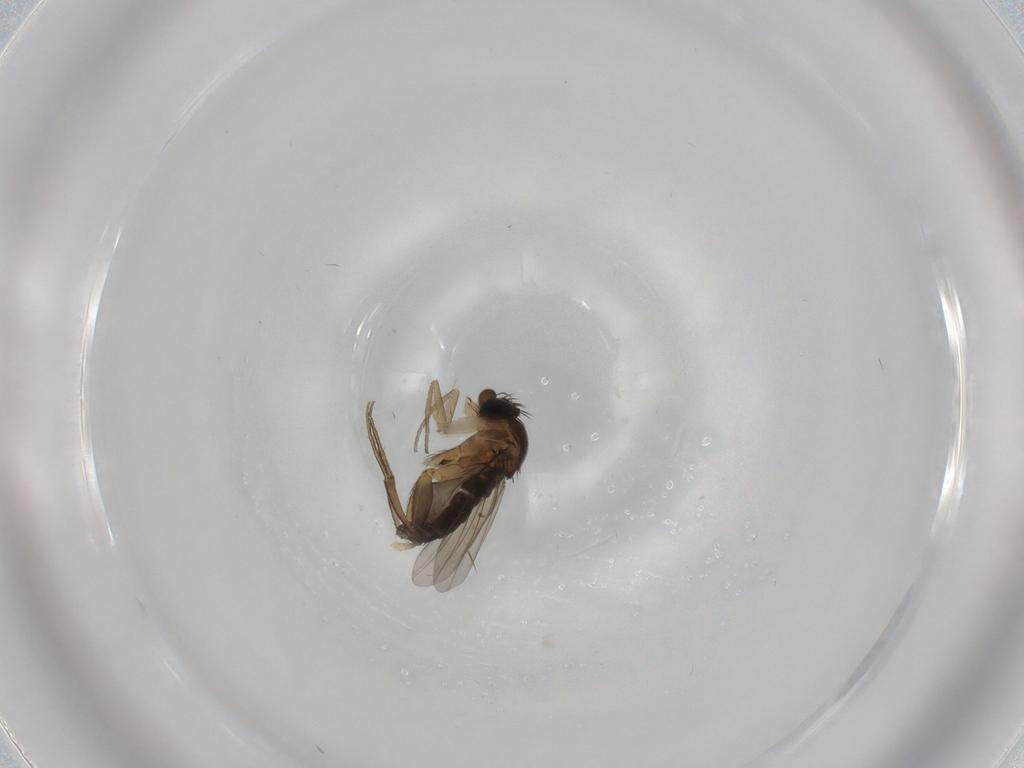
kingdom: Animalia
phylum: Arthropoda
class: Insecta
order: Diptera
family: Phoridae
